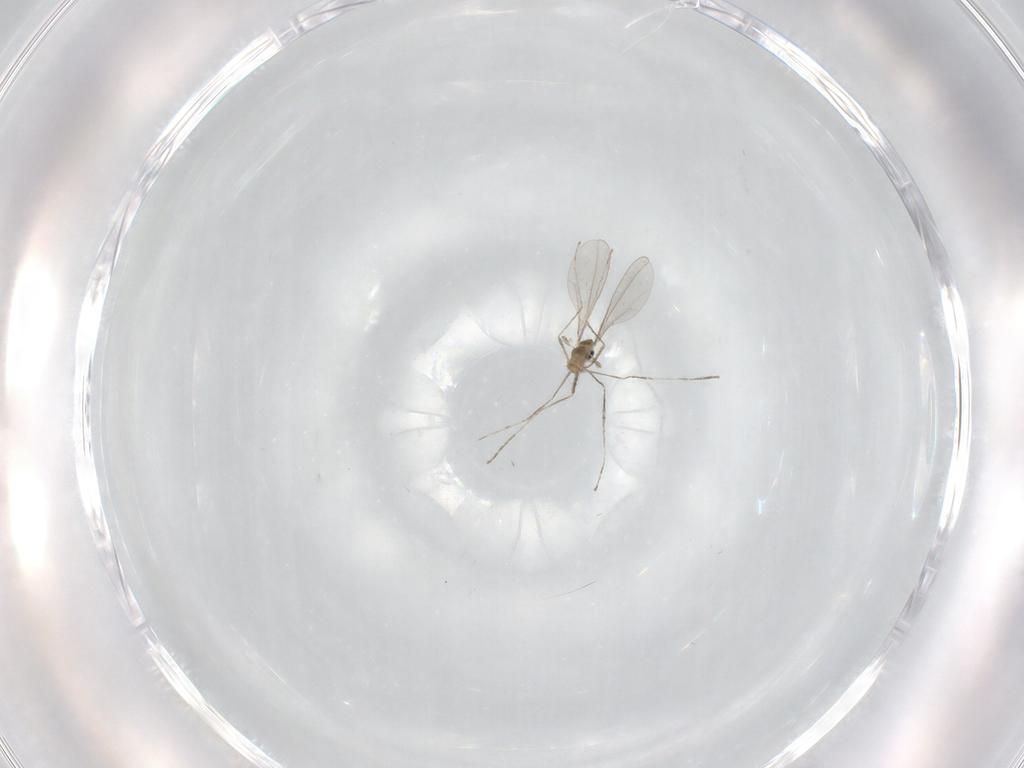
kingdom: Animalia
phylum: Arthropoda
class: Insecta
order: Diptera
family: Cecidomyiidae
